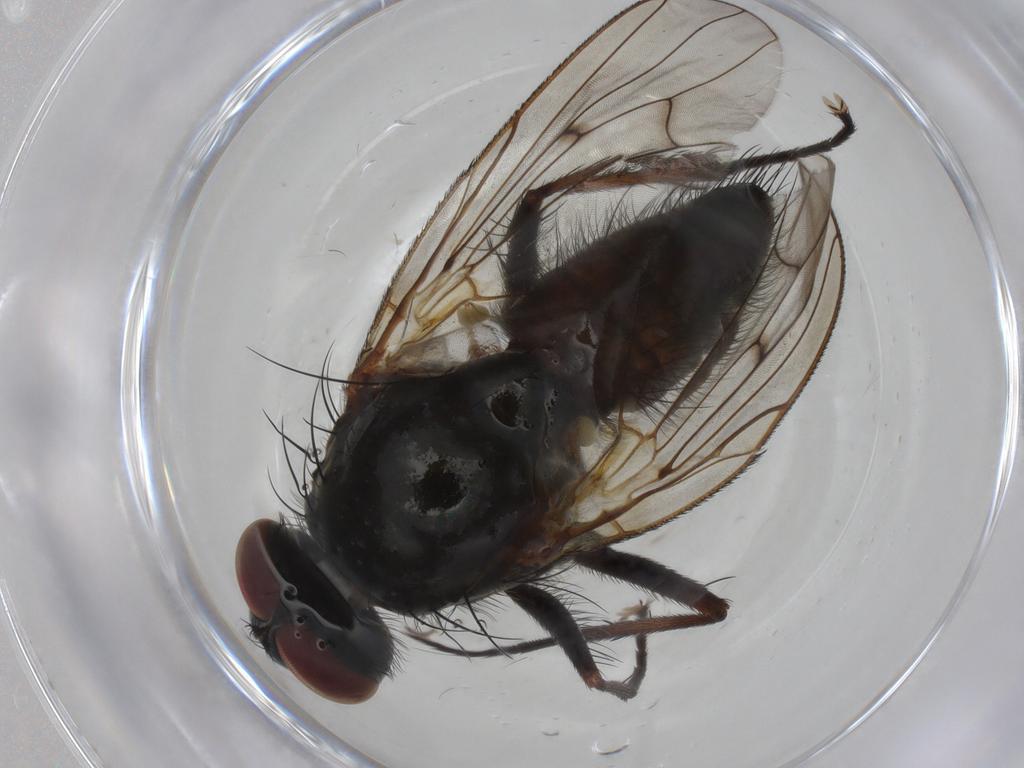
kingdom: Animalia
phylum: Arthropoda
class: Insecta
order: Diptera
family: Anthomyiidae
